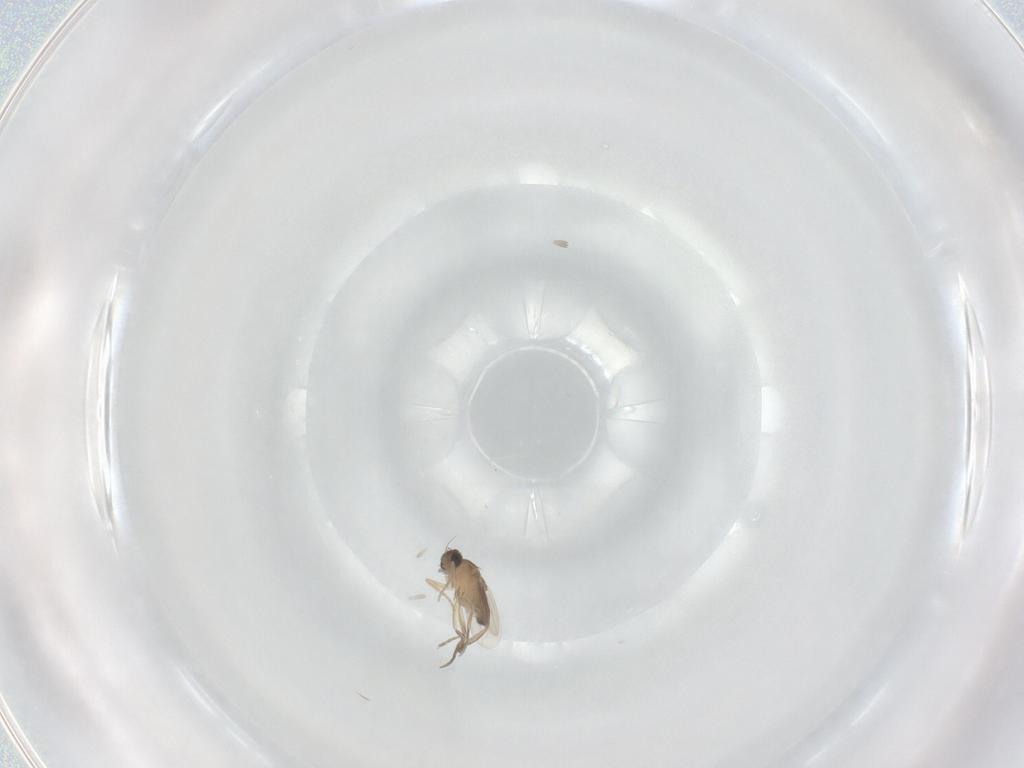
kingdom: Animalia
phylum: Arthropoda
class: Insecta
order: Diptera
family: Phoridae
